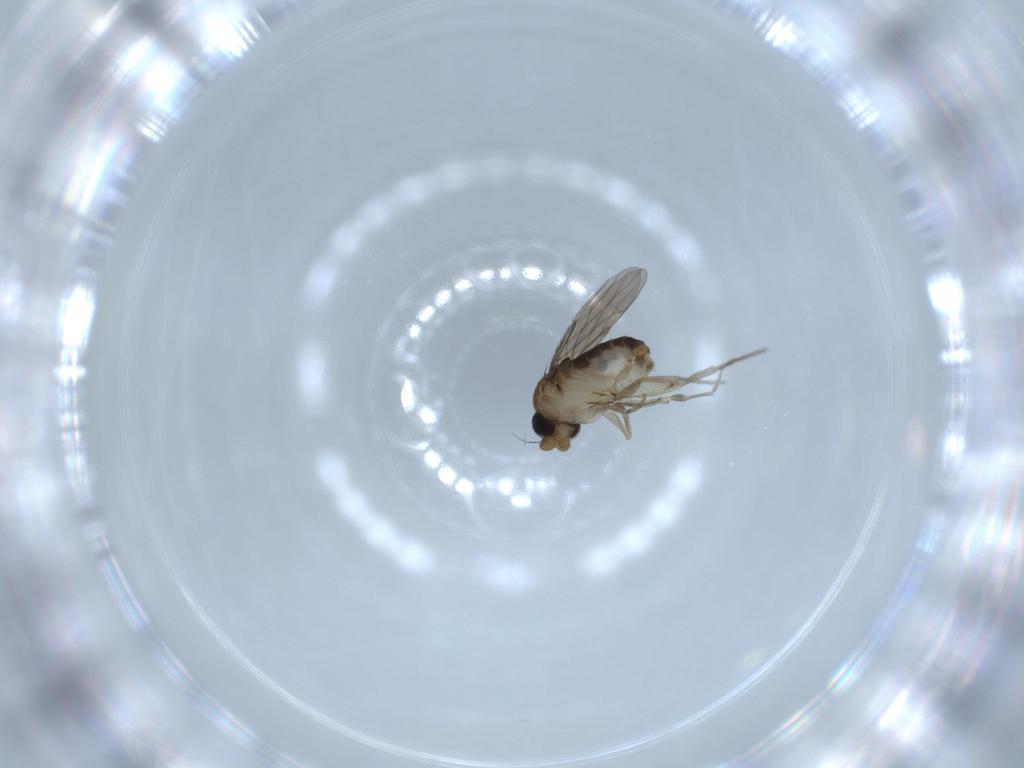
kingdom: Animalia
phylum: Arthropoda
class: Insecta
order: Diptera
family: Phoridae
